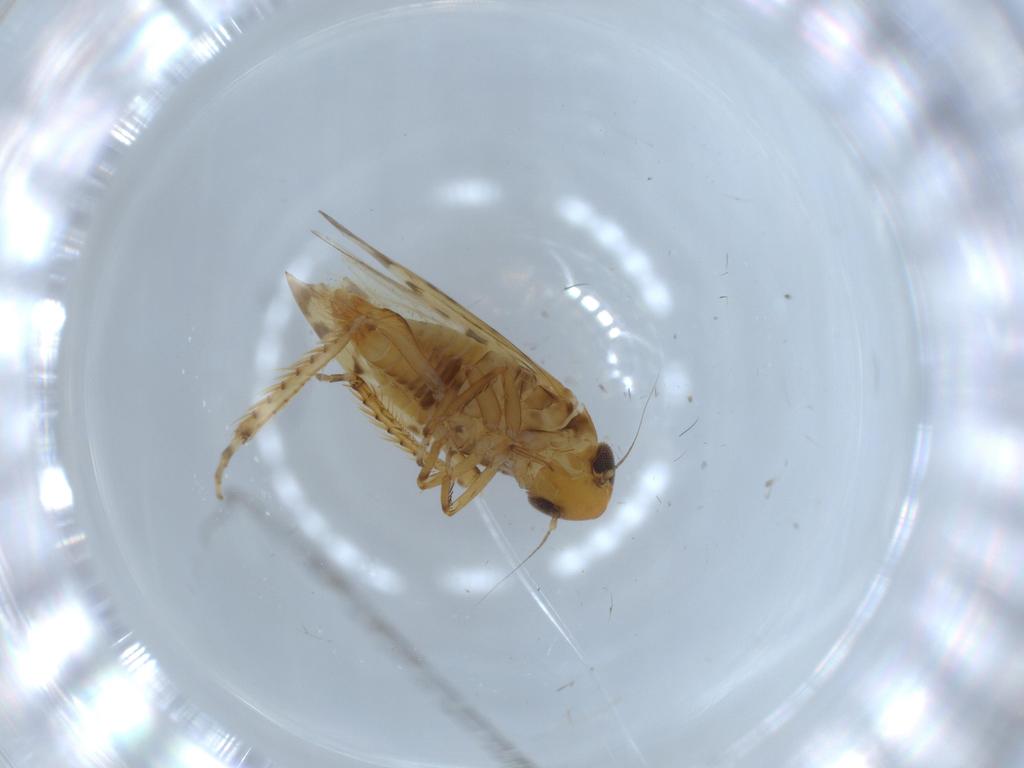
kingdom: Animalia
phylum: Arthropoda
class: Insecta
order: Hemiptera
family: Cicadellidae
